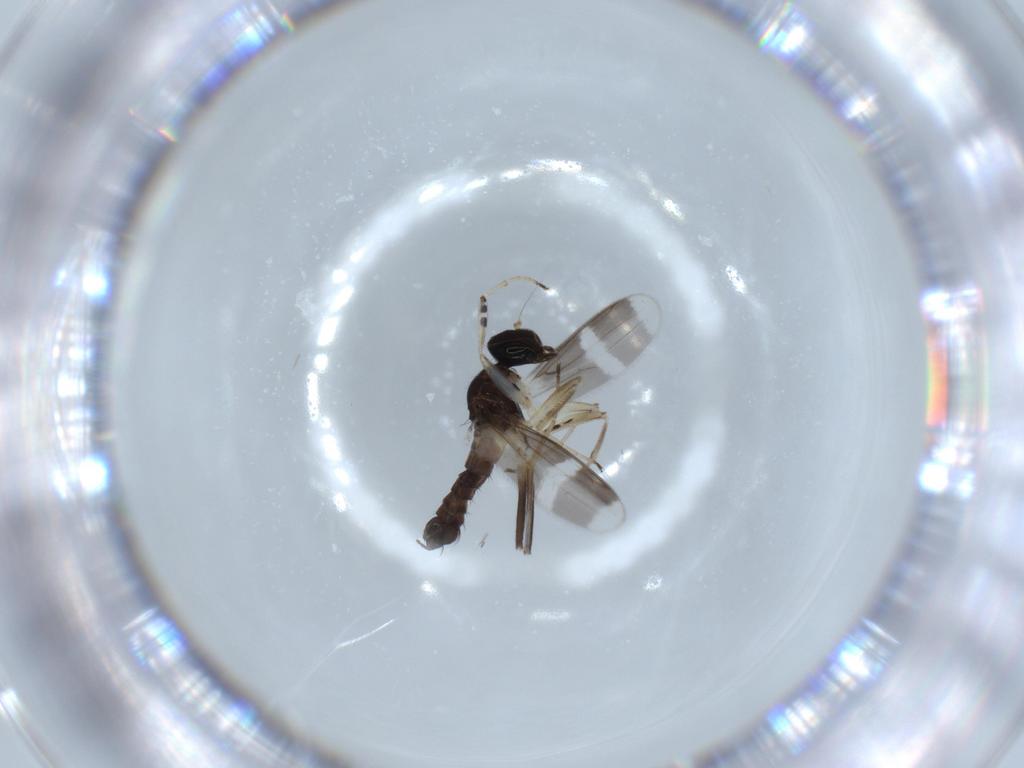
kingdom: Animalia
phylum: Arthropoda
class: Insecta
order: Diptera
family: Hybotidae
